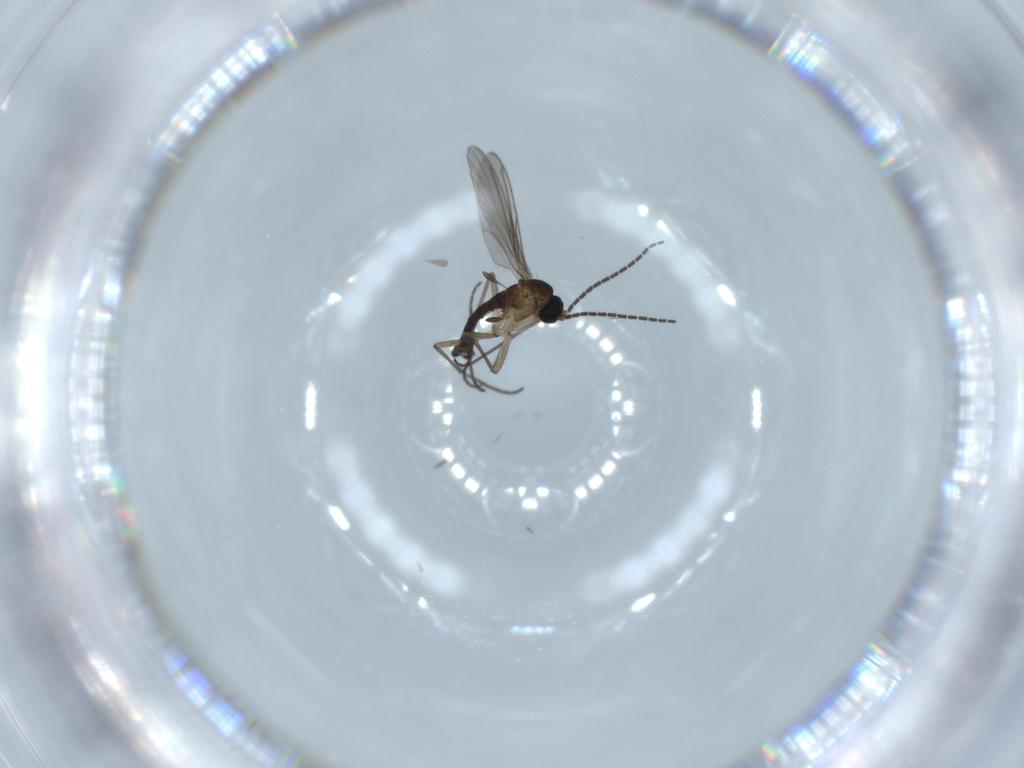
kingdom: Animalia
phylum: Arthropoda
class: Insecta
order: Diptera
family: Sciaridae
